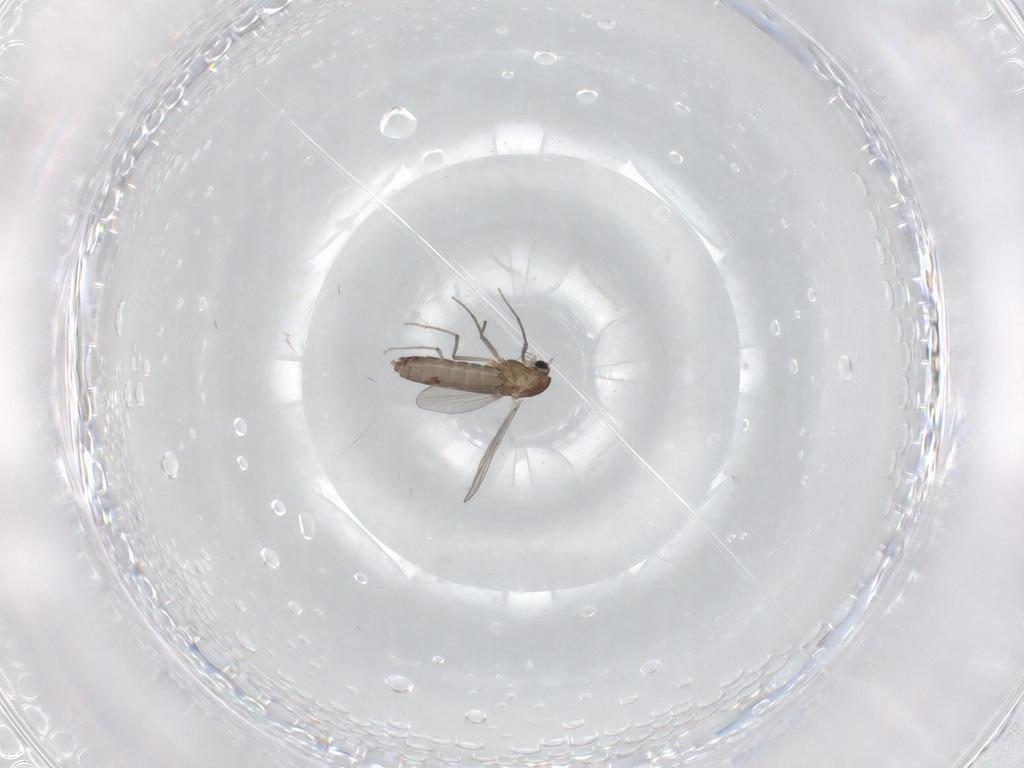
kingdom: Animalia
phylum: Arthropoda
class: Insecta
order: Diptera
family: Chironomidae
